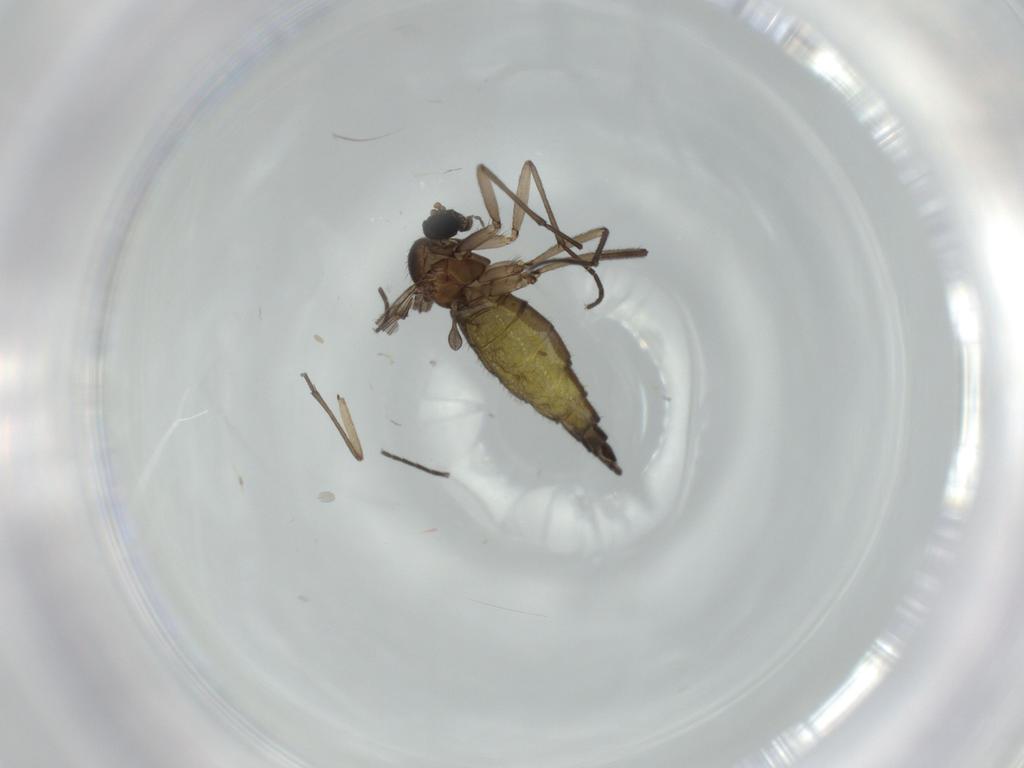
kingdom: Animalia
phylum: Arthropoda
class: Insecta
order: Diptera
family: Sciaridae
